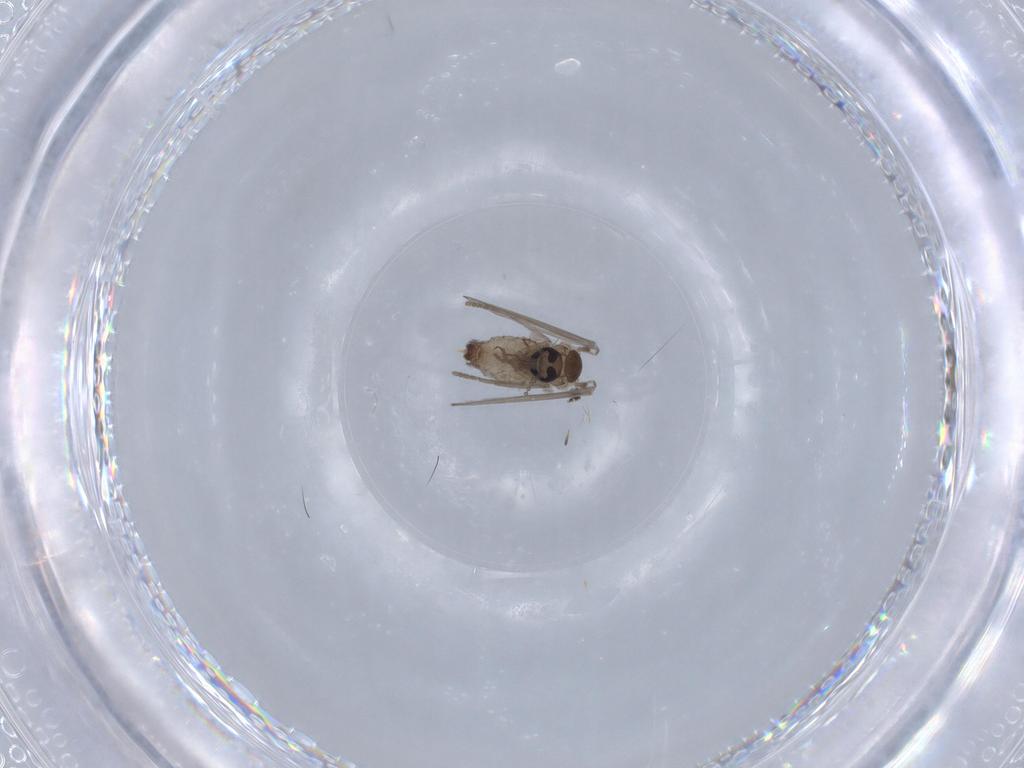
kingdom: Animalia
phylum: Arthropoda
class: Insecta
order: Diptera
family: Psychodidae
